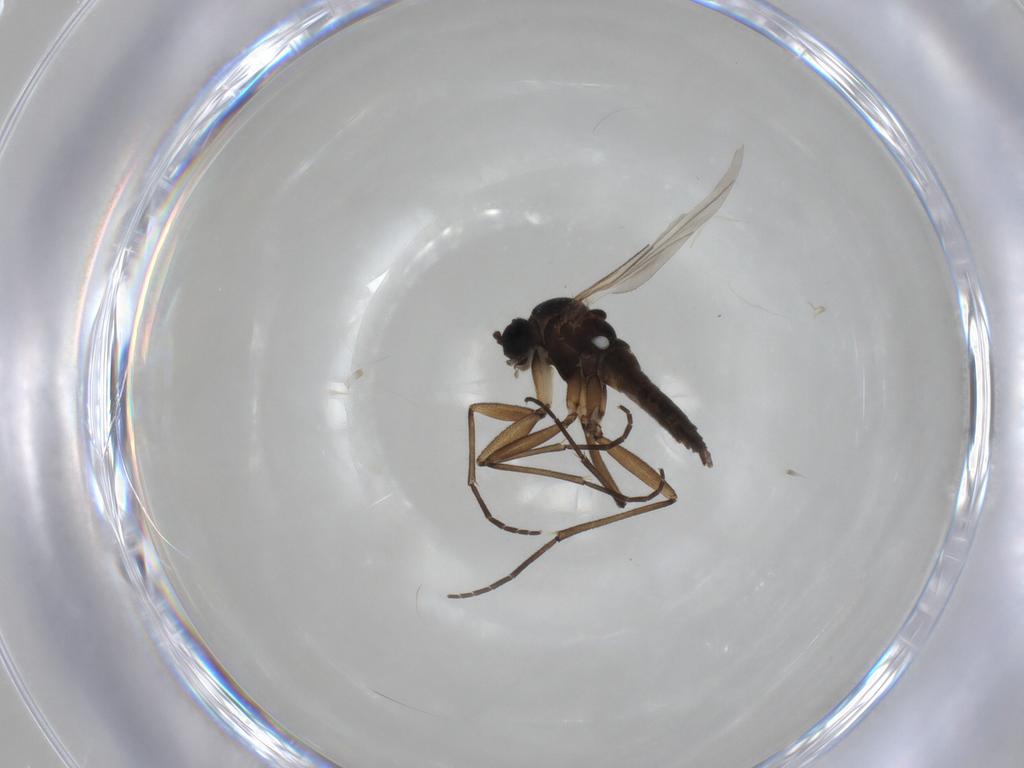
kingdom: Animalia
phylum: Arthropoda
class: Insecta
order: Diptera
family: Sciaridae
